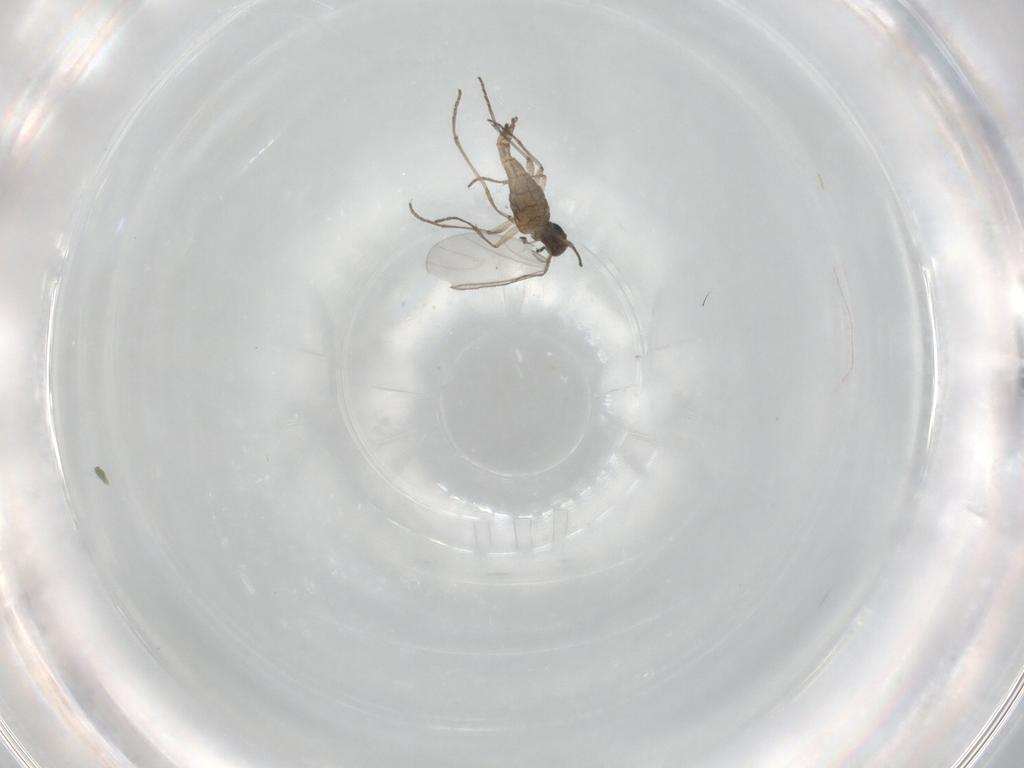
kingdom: Animalia
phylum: Arthropoda
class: Insecta
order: Diptera
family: Sciaridae
